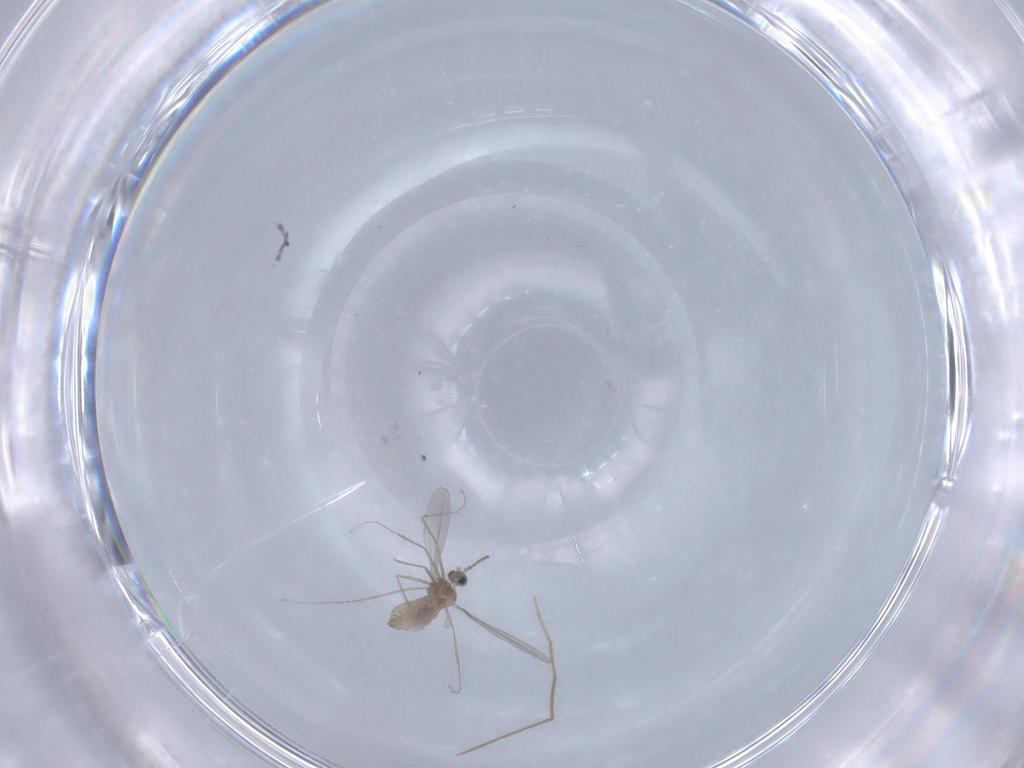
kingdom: Animalia
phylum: Arthropoda
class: Insecta
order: Diptera
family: Cecidomyiidae
